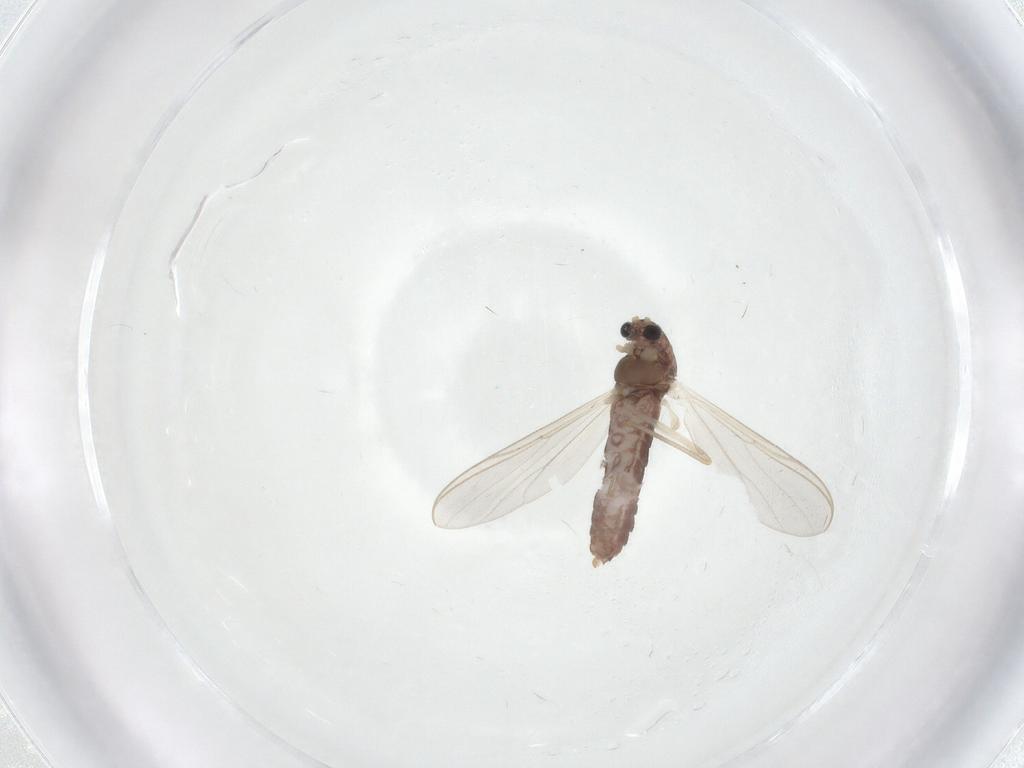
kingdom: Animalia
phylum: Arthropoda
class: Insecta
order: Diptera
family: Chironomidae
